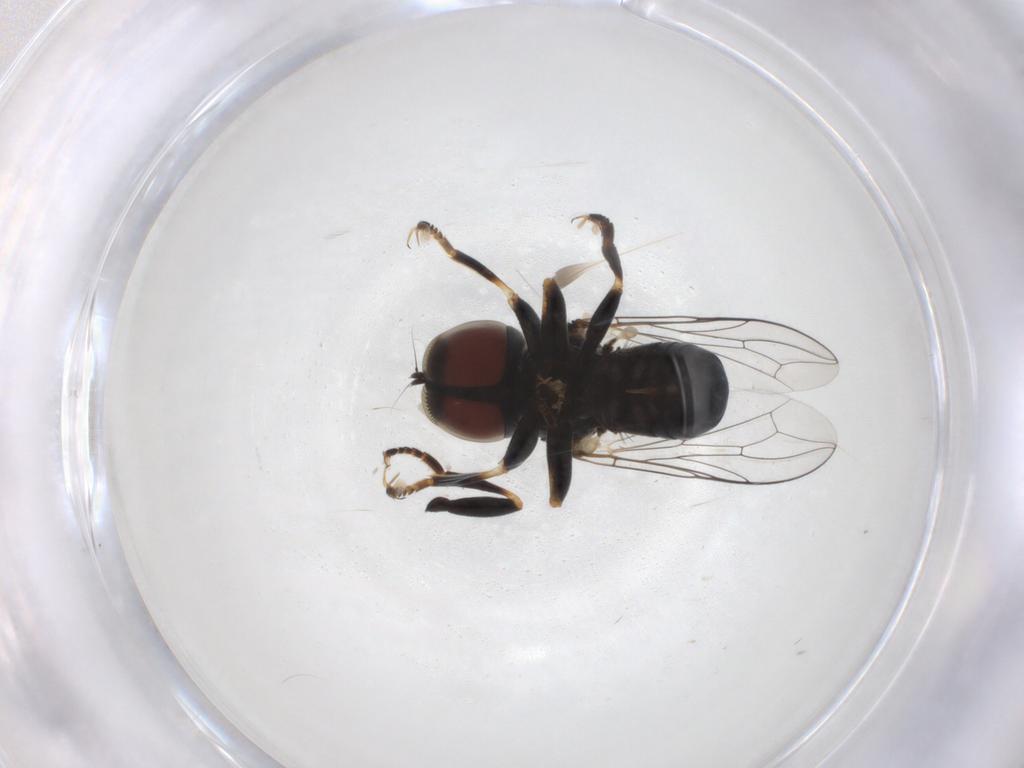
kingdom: Animalia
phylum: Arthropoda
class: Insecta
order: Diptera
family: Pipunculidae
